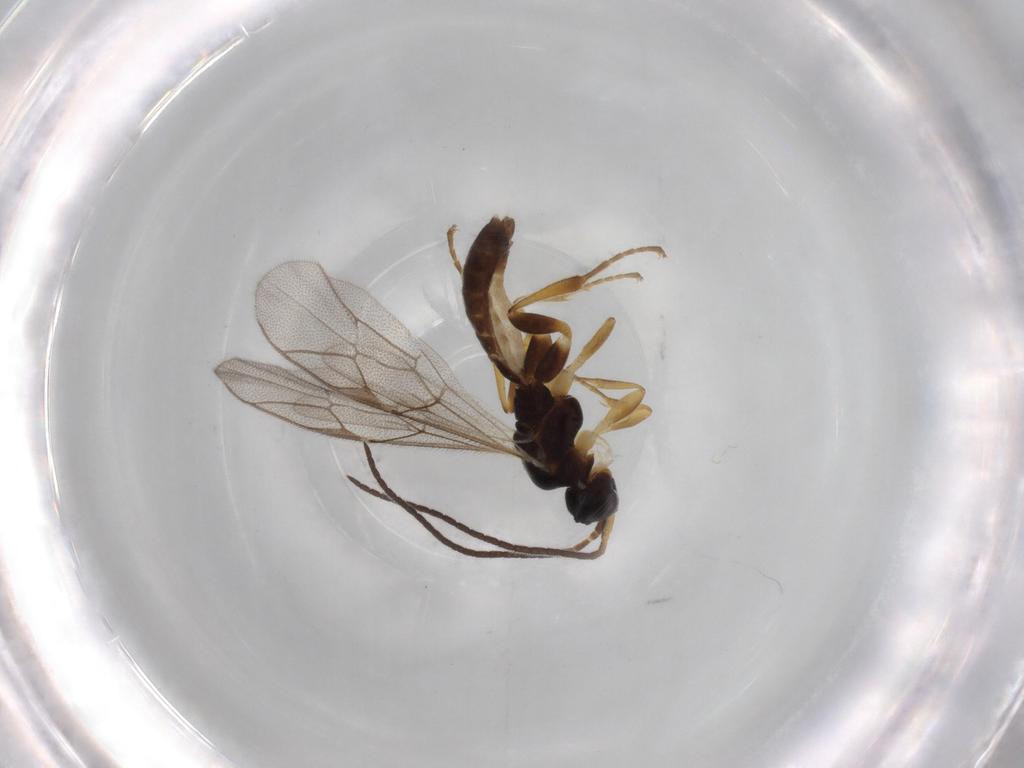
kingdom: Animalia
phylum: Arthropoda
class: Insecta
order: Hymenoptera
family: Ichneumonidae
